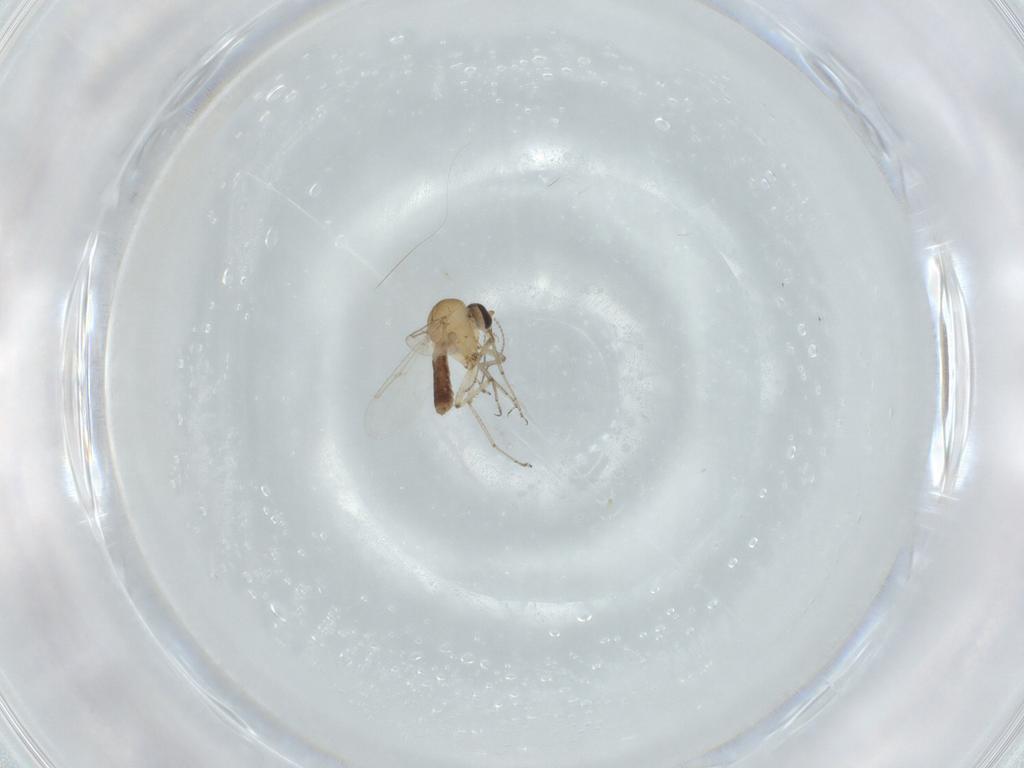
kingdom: Animalia
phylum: Arthropoda
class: Insecta
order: Diptera
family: Ceratopogonidae
